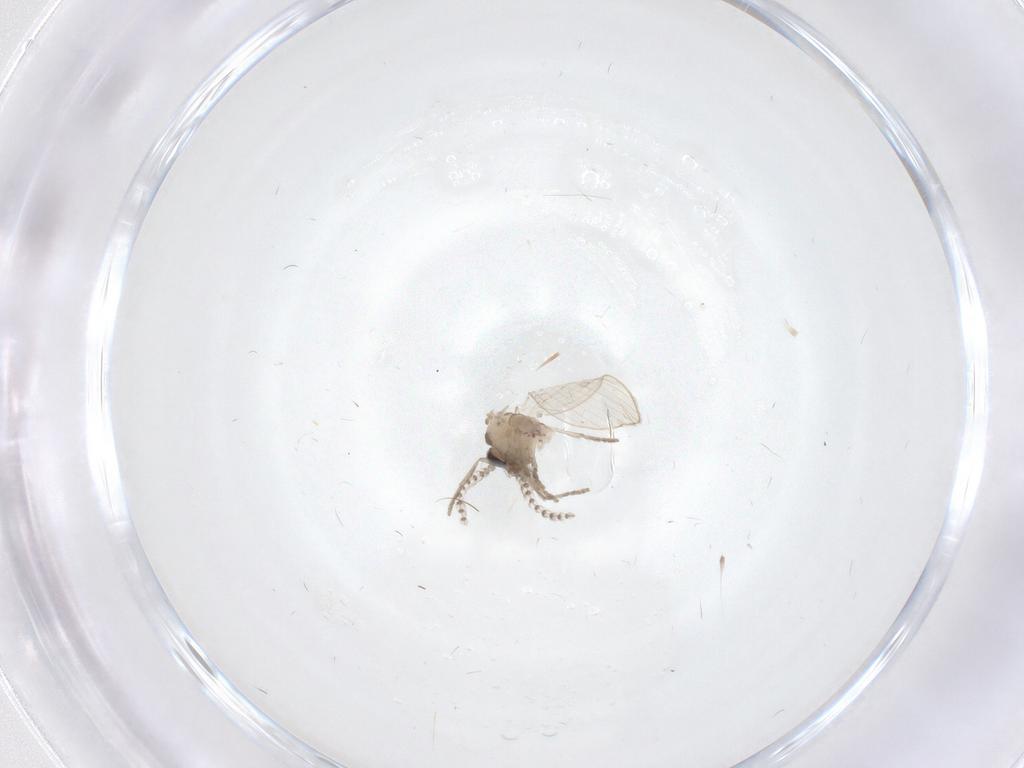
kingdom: Animalia
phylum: Arthropoda
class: Insecta
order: Diptera
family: Psychodidae
